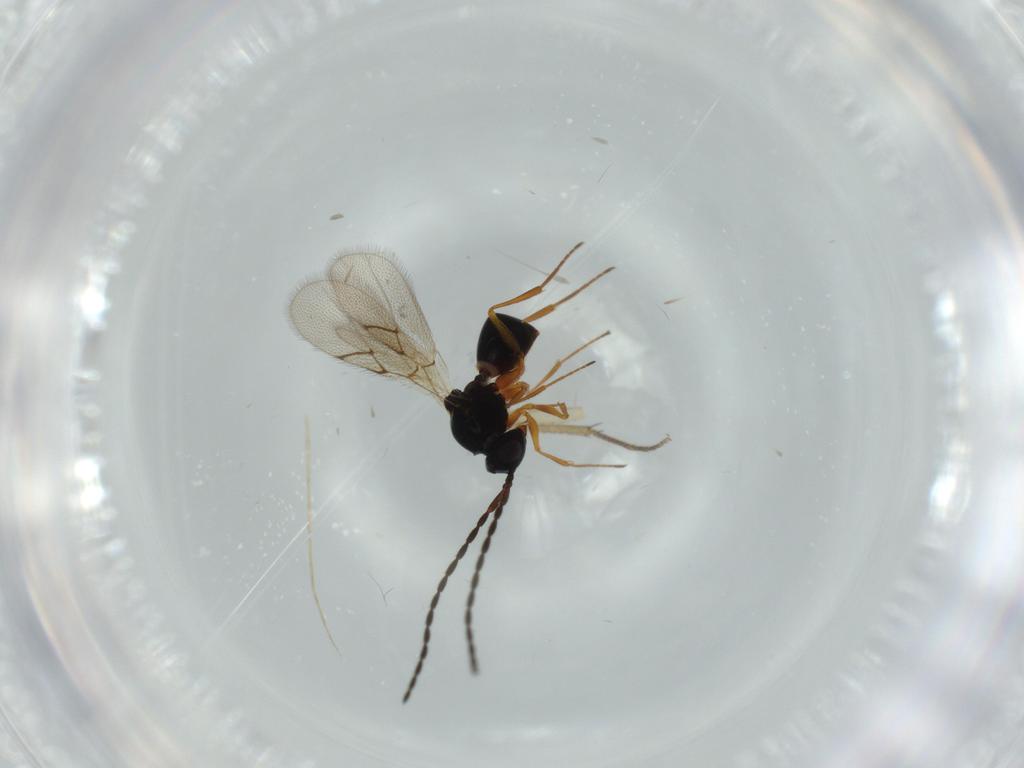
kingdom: Animalia
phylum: Arthropoda
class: Insecta
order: Hymenoptera
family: Figitidae
